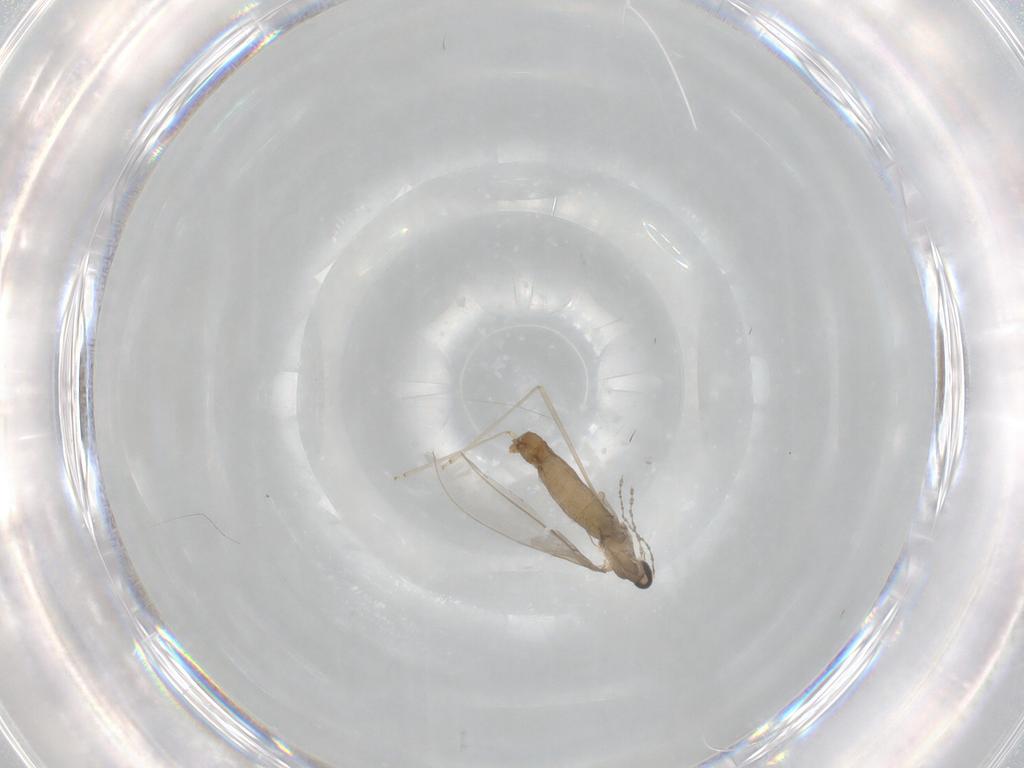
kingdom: Animalia
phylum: Arthropoda
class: Insecta
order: Diptera
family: Cecidomyiidae
